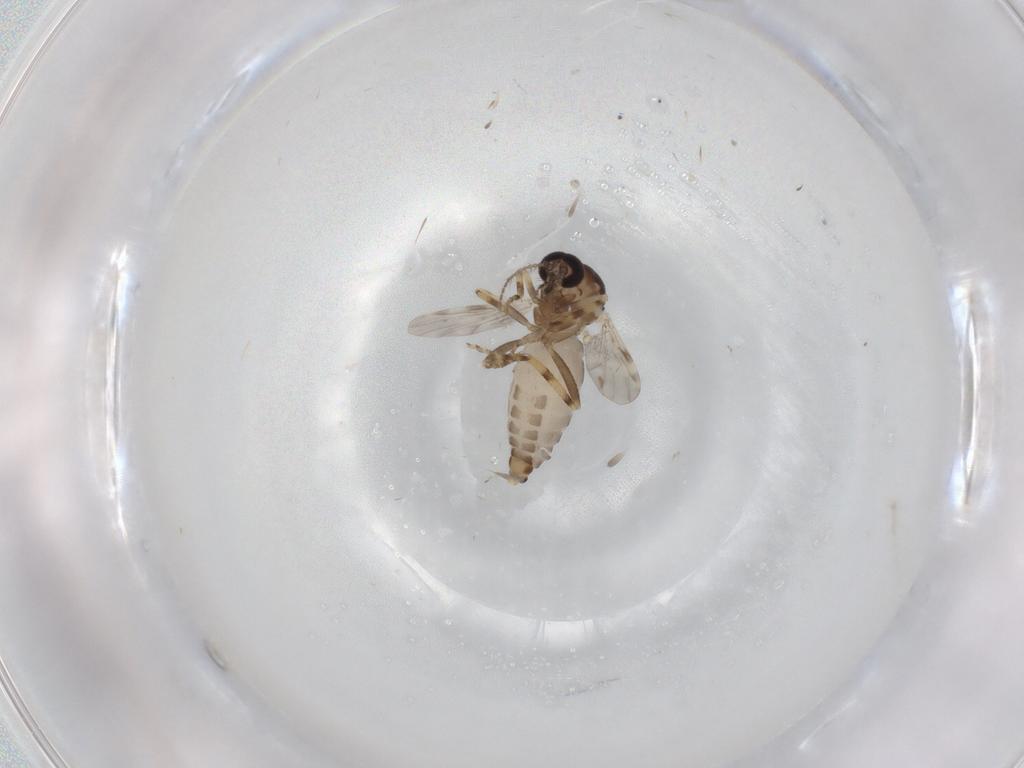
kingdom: Animalia
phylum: Arthropoda
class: Insecta
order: Diptera
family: Ceratopogonidae
